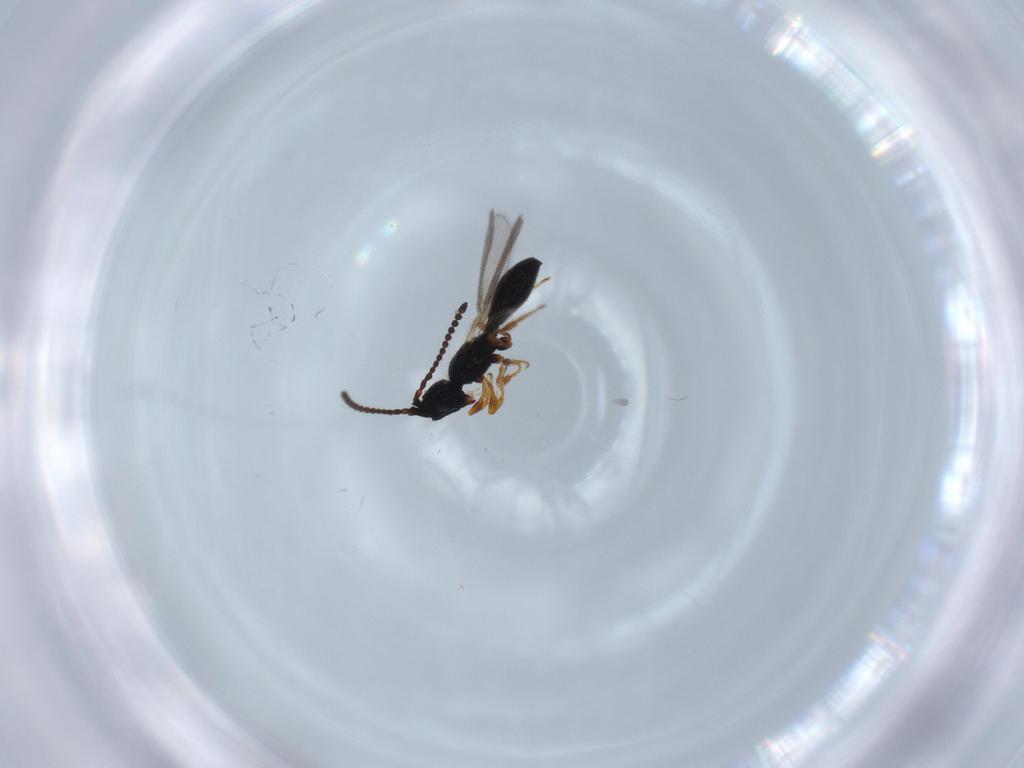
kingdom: Animalia
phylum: Arthropoda
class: Insecta
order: Hymenoptera
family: Diapriidae
